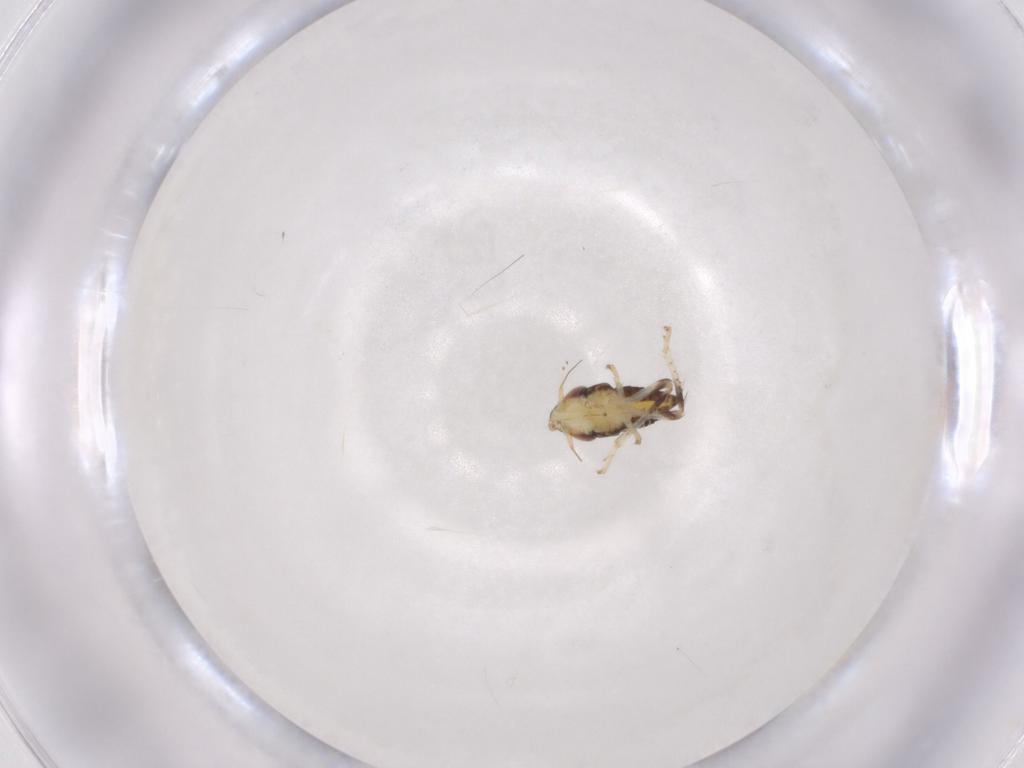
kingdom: Animalia
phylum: Arthropoda
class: Insecta
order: Hemiptera
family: Cicadellidae
